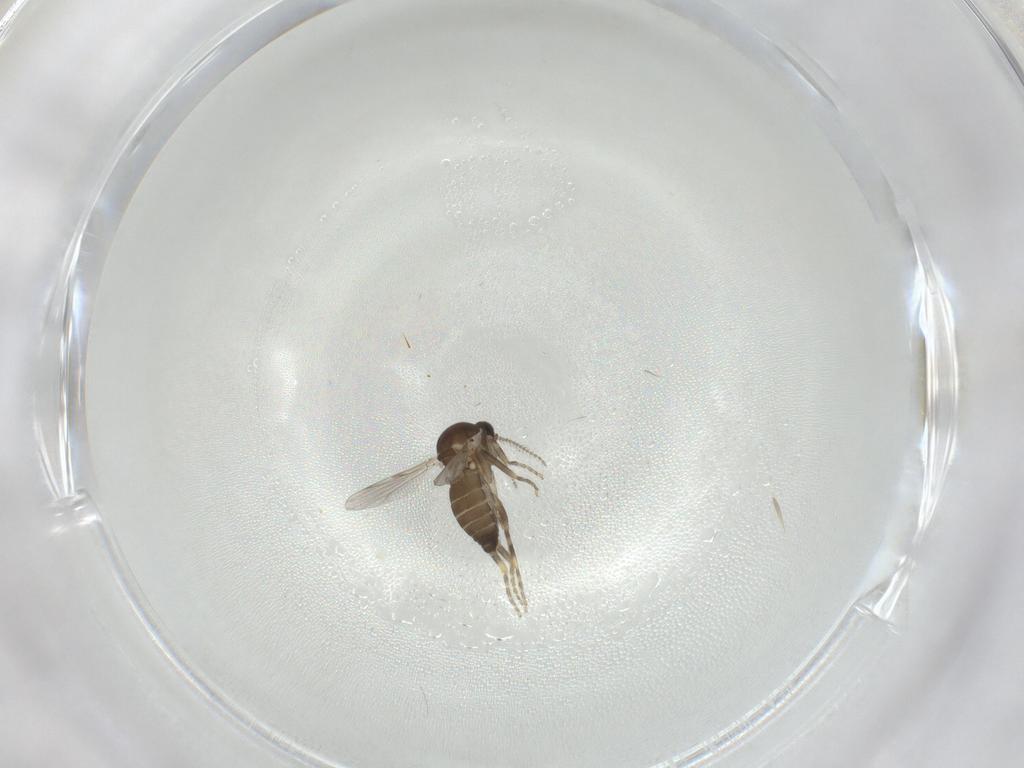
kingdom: Animalia
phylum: Arthropoda
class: Insecta
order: Diptera
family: Ceratopogonidae
